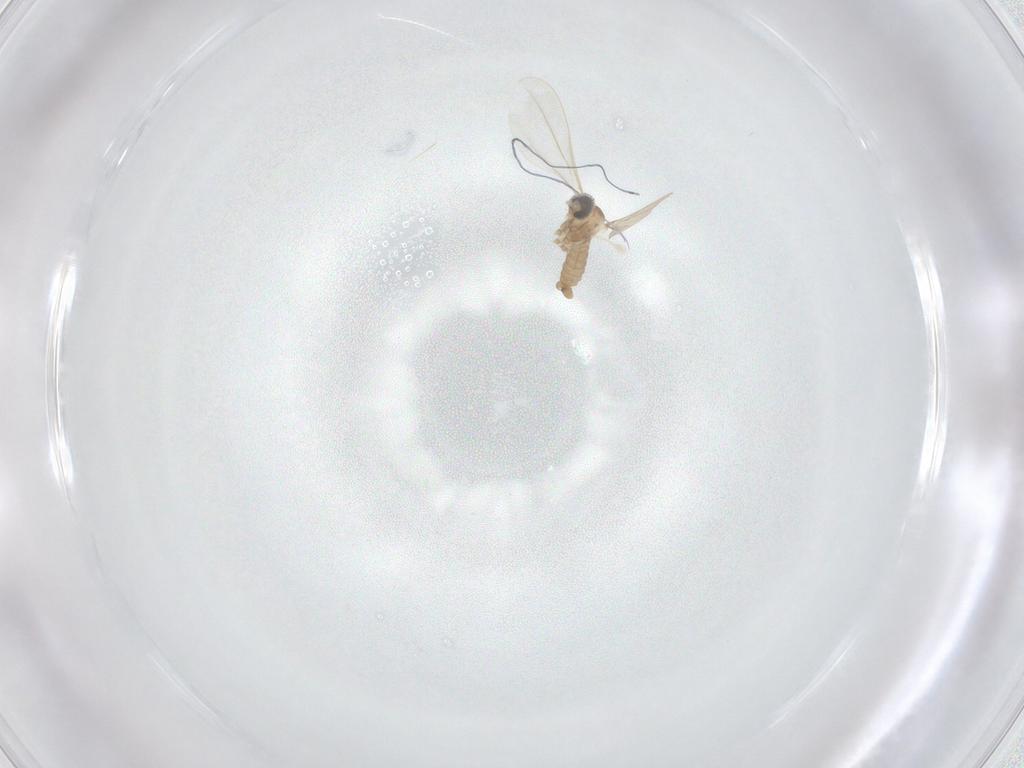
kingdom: Animalia
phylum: Arthropoda
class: Insecta
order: Diptera
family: Cecidomyiidae
